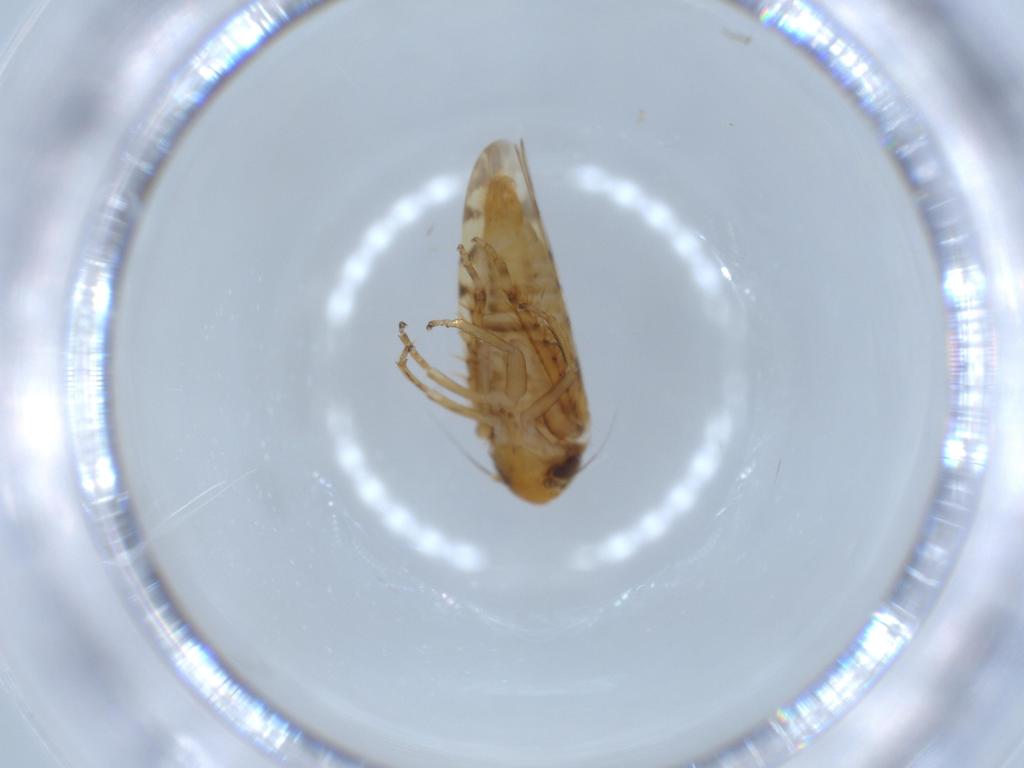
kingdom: Animalia
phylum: Arthropoda
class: Insecta
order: Hemiptera
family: Cicadellidae
